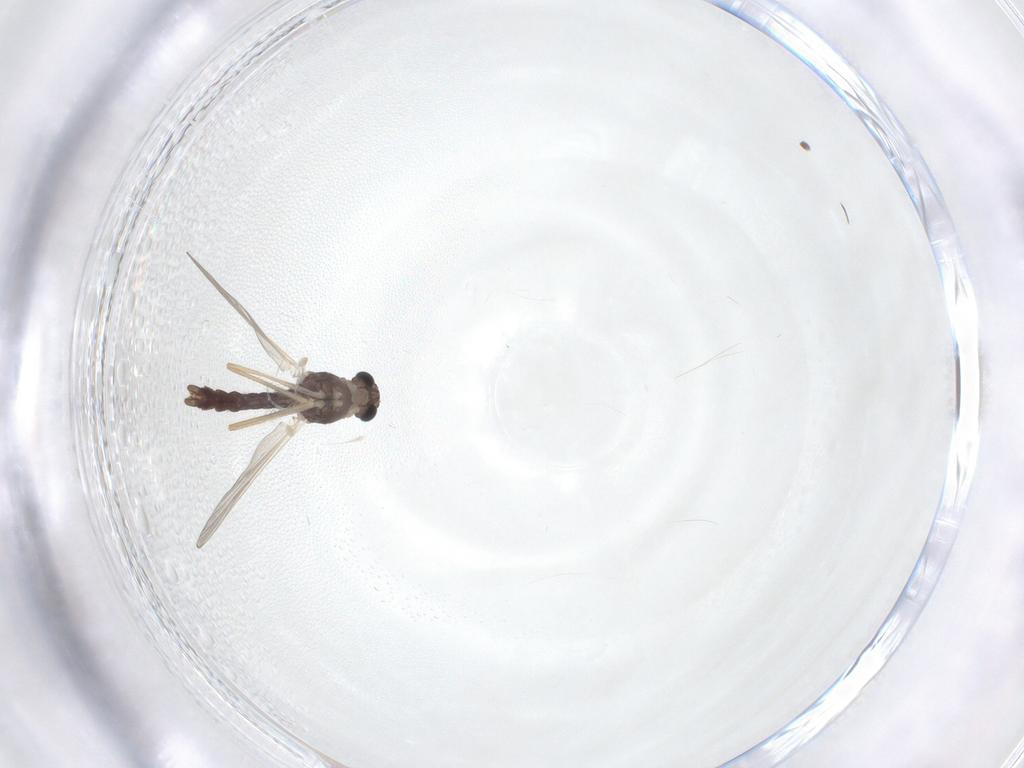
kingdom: Animalia
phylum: Arthropoda
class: Insecta
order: Diptera
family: Chironomidae
